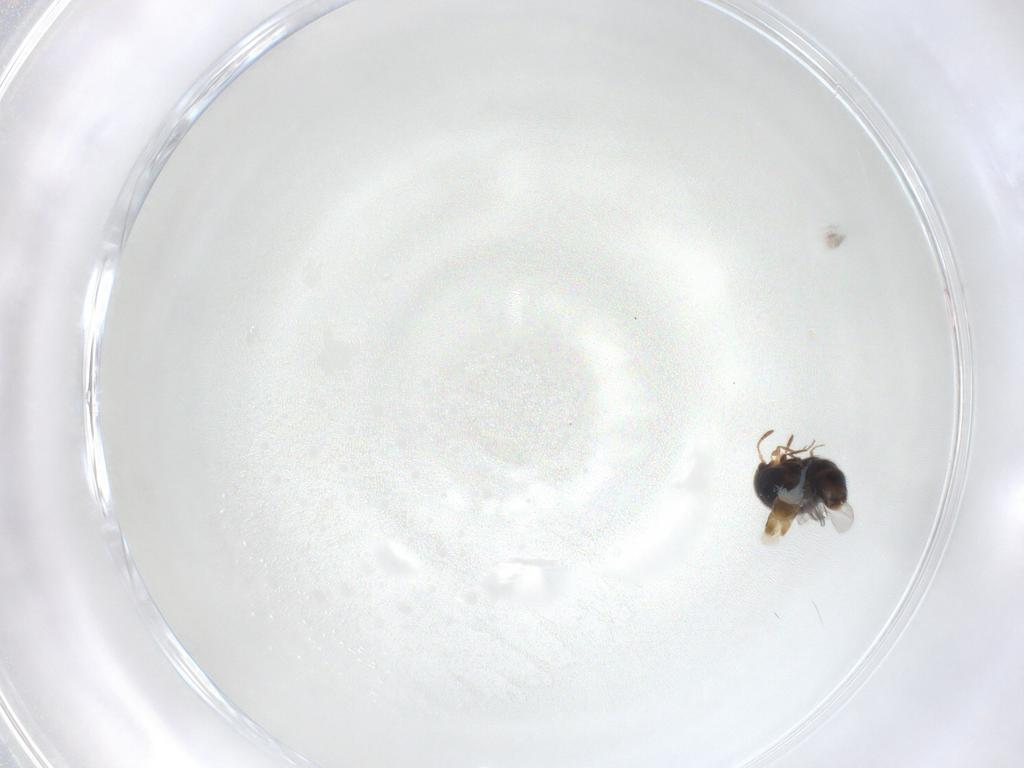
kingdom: Animalia
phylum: Arthropoda
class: Insecta
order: Coleoptera
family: Staphylinidae
